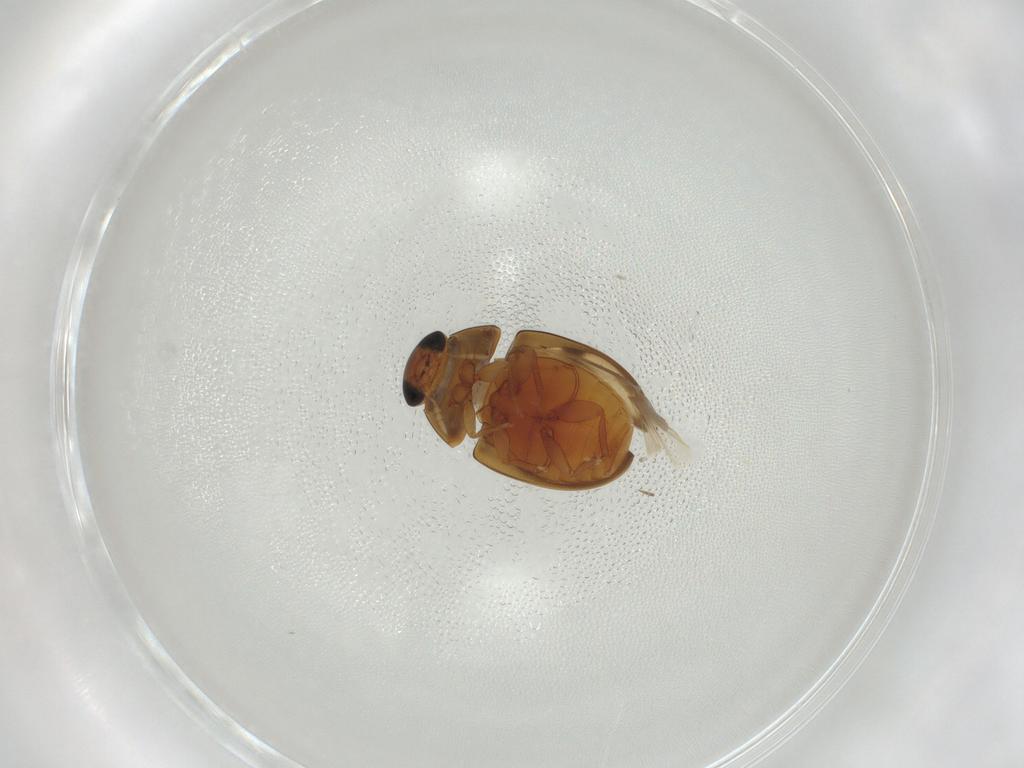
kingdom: Animalia
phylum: Arthropoda
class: Insecta
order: Coleoptera
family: Phalacridae
